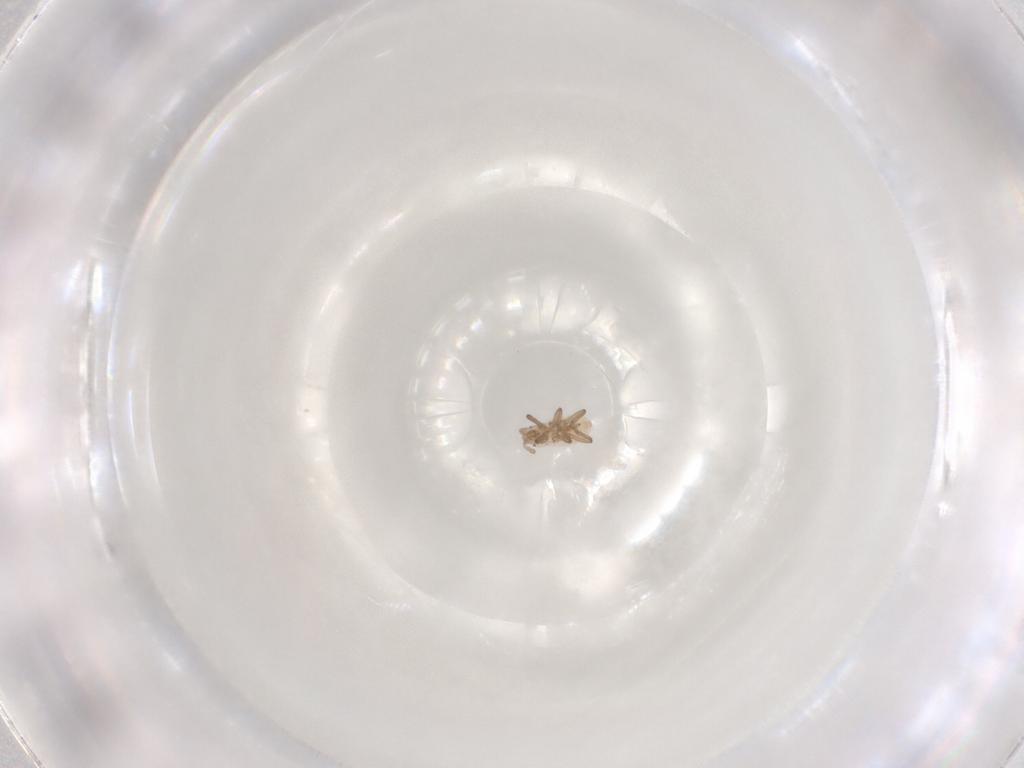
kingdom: Animalia
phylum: Arthropoda
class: Insecta
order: Hemiptera
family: Aphididae
